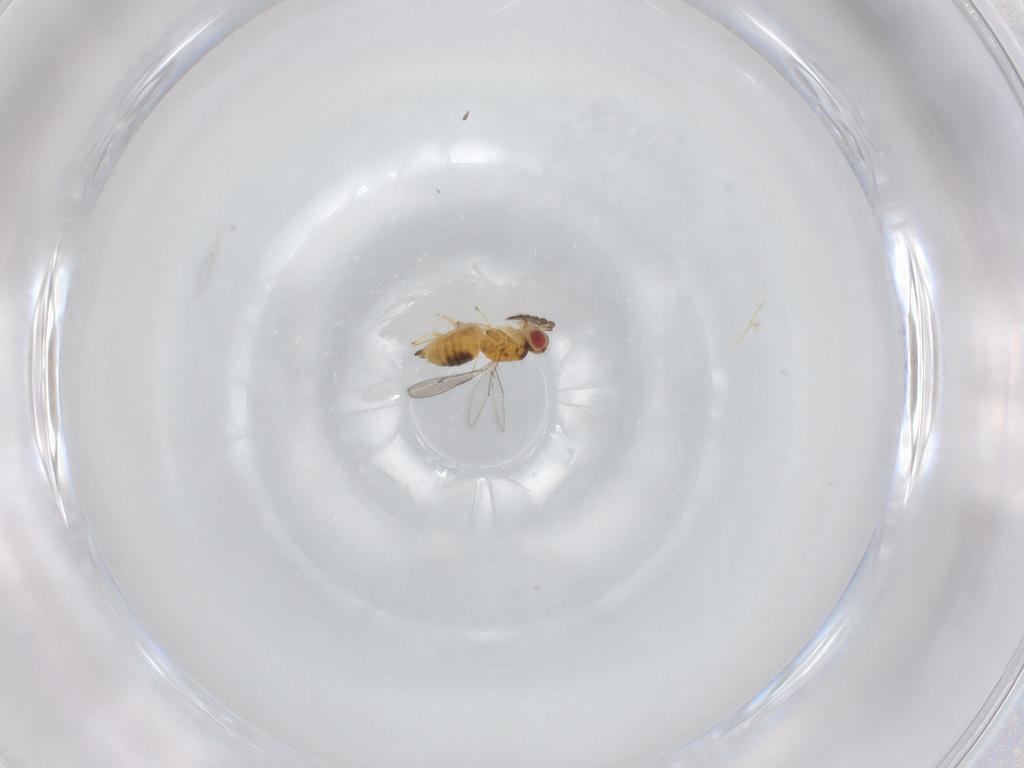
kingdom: Animalia
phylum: Arthropoda
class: Insecta
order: Hymenoptera
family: Eulophidae
